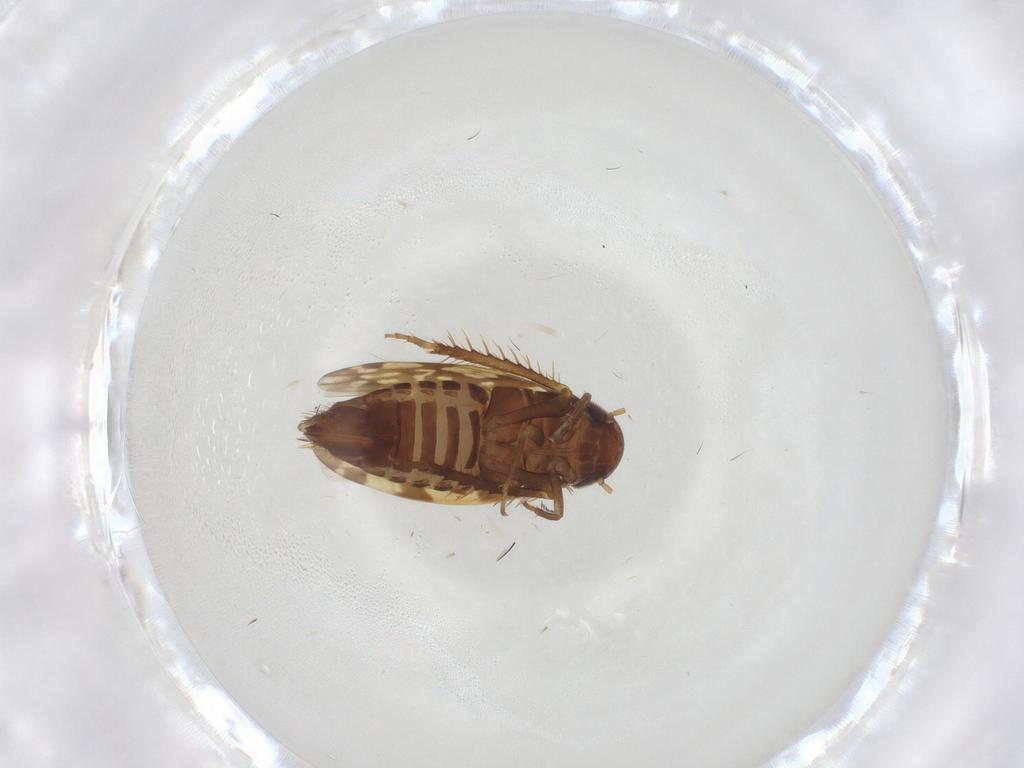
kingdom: Animalia
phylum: Arthropoda
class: Insecta
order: Hemiptera
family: Cicadellidae
